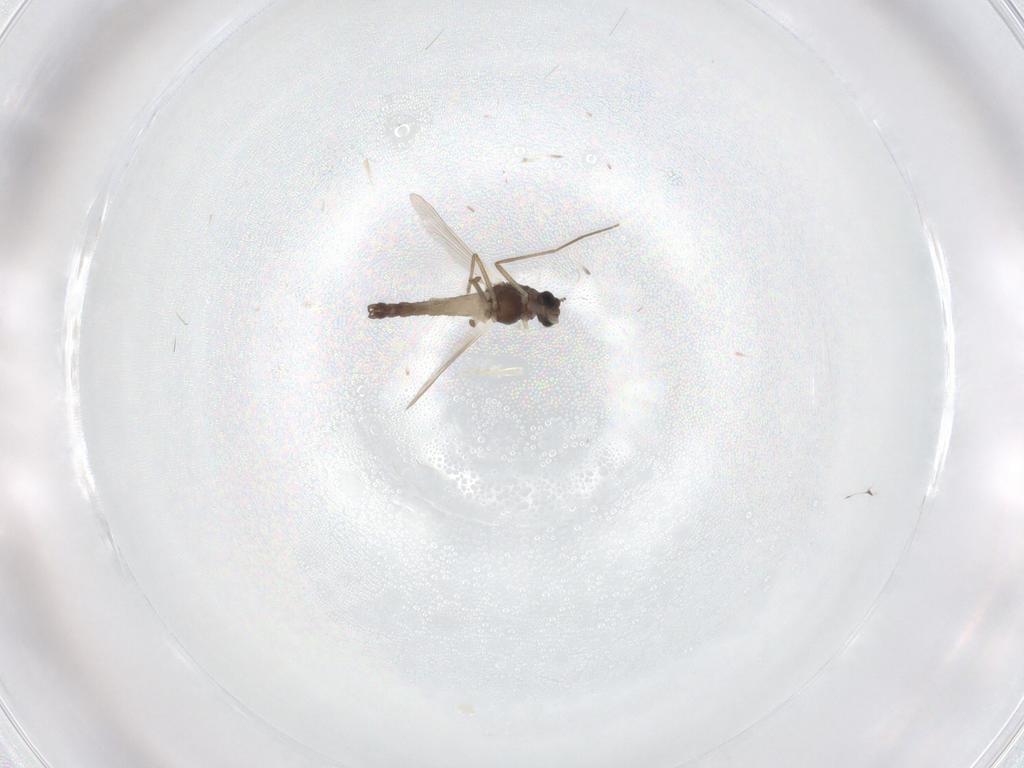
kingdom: Animalia
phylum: Arthropoda
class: Insecta
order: Diptera
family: Chironomidae
